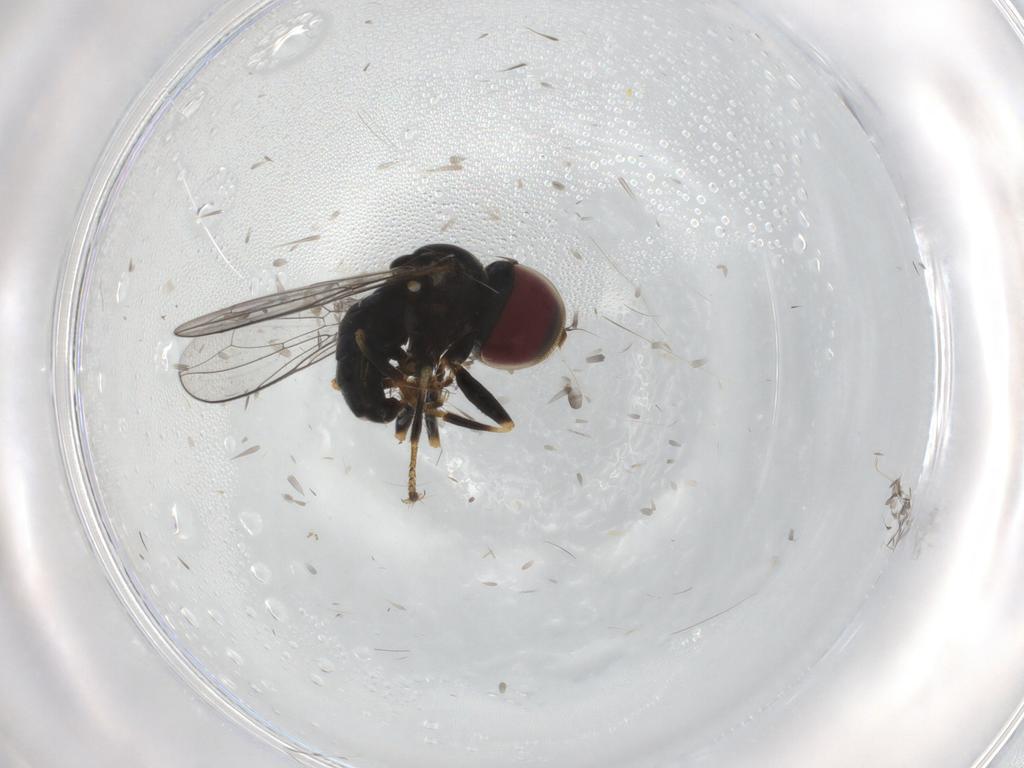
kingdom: Animalia
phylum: Arthropoda
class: Insecta
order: Diptera
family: Pipunculidae
